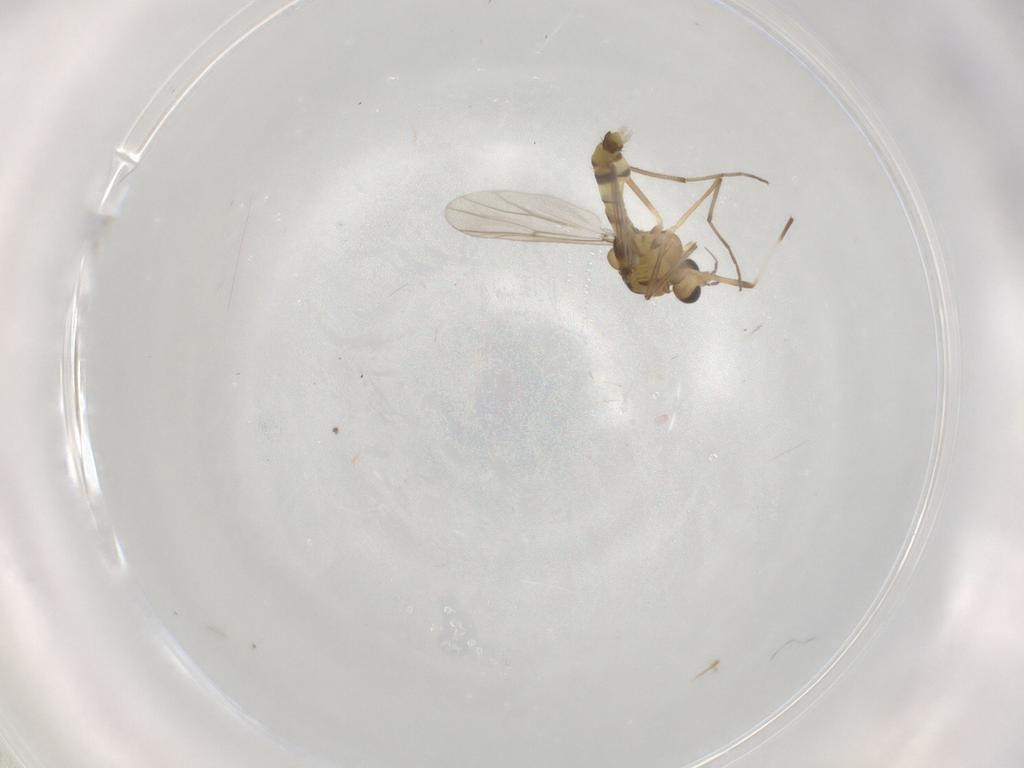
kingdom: Animalia
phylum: Arthropoda
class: Insecta
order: Diptera
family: Chironomidae
